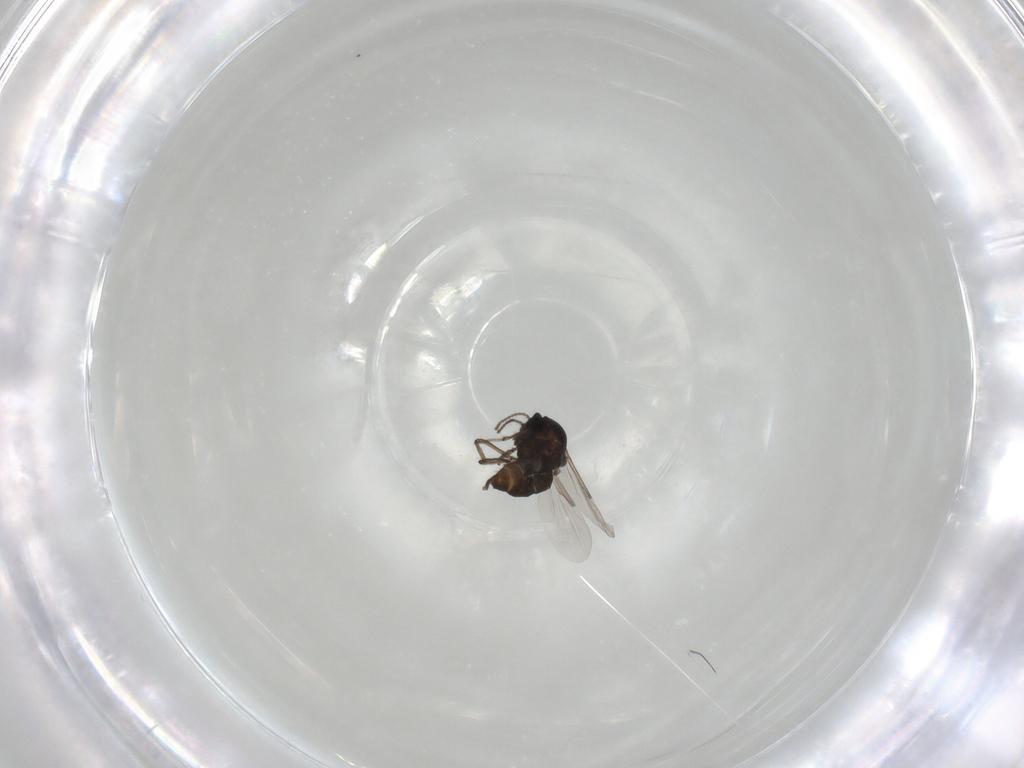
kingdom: Animalia
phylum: Arthropoda
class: Insecta
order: Diptera
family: Ceratopogonidae
